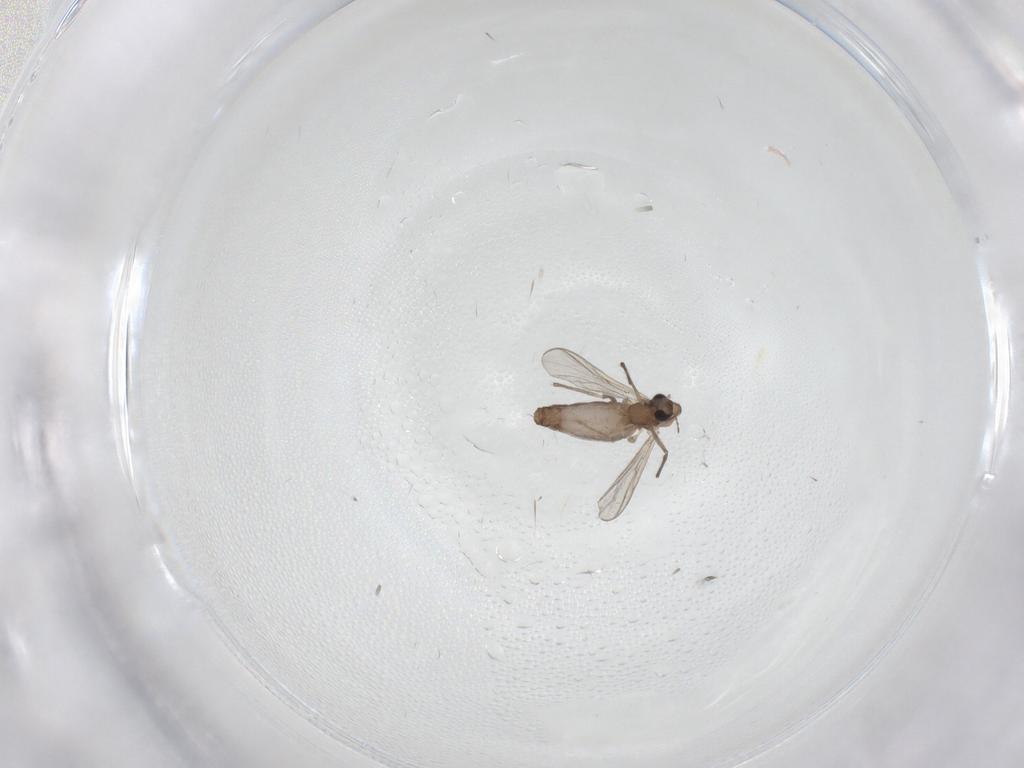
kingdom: Animalia
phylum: Arthropoda
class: Insecta
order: Diptera
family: Chironomidae
